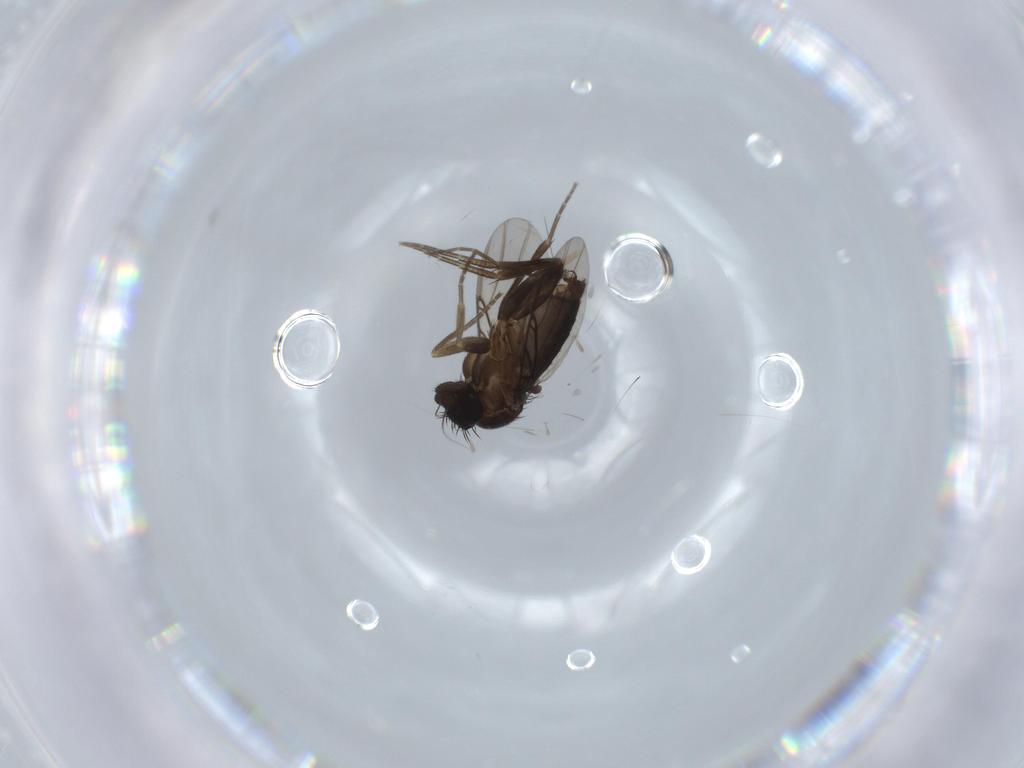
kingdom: Animalia
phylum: Arthropoda
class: Insecta
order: Diptera
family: Phoridae
